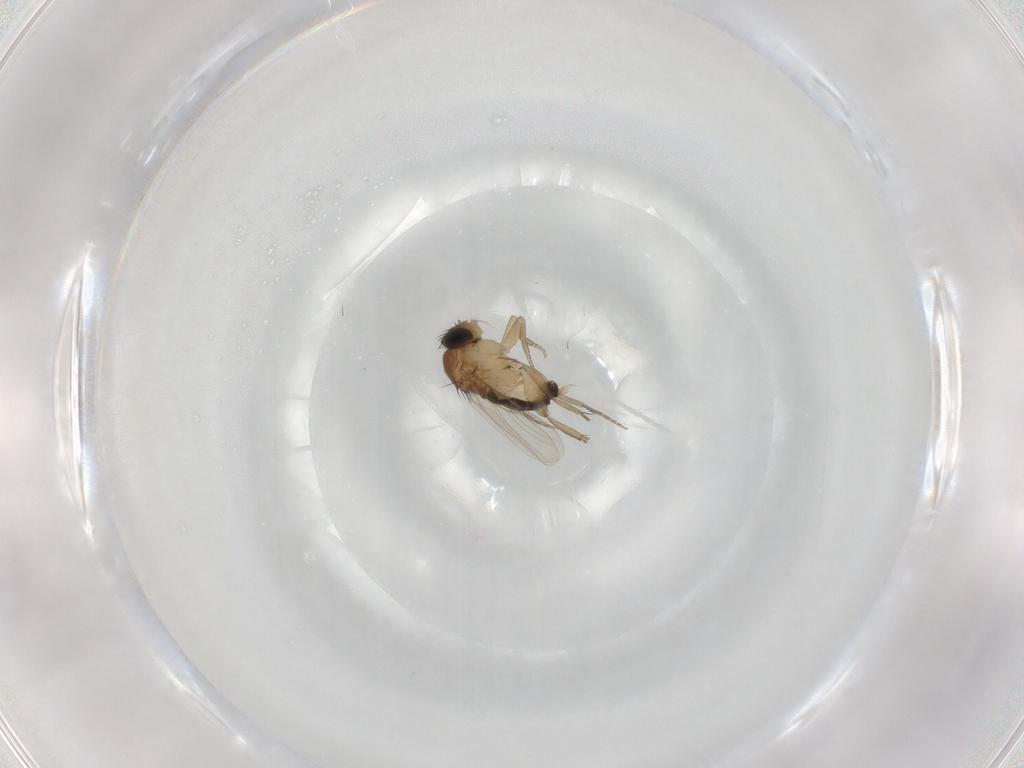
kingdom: Animalia
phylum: Arthropoda
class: Insecta
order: Diptera
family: Phoridae
